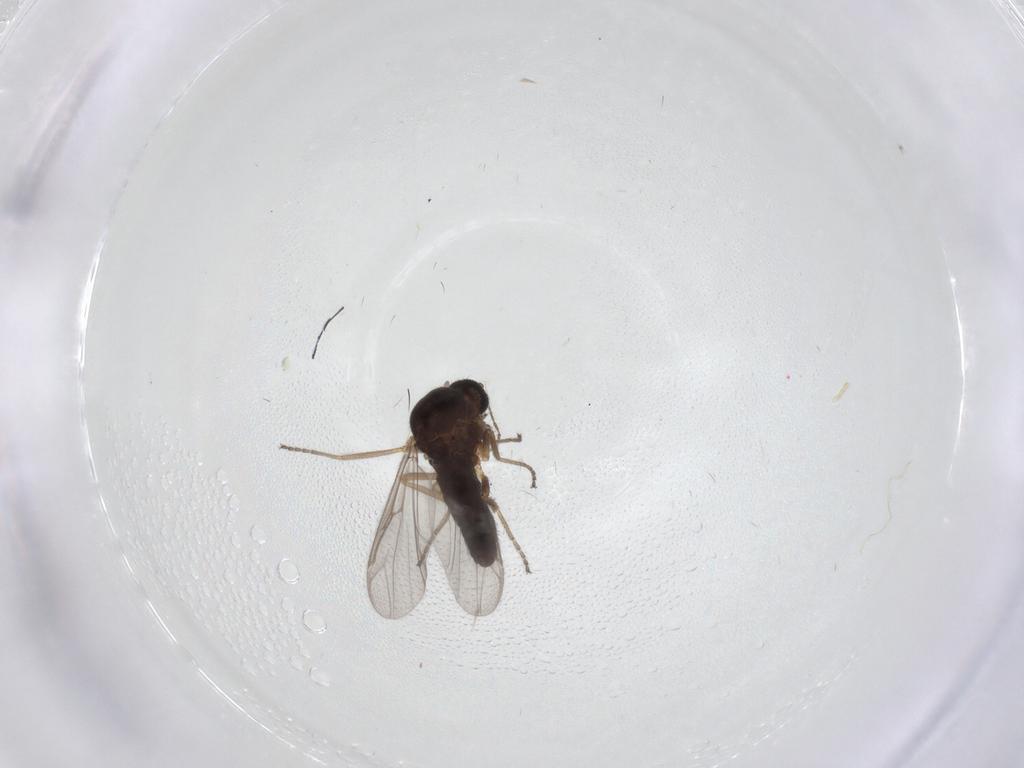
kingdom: Animalia
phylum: Arthropoda
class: Insecta
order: Diptera
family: Ceratopogonidae
